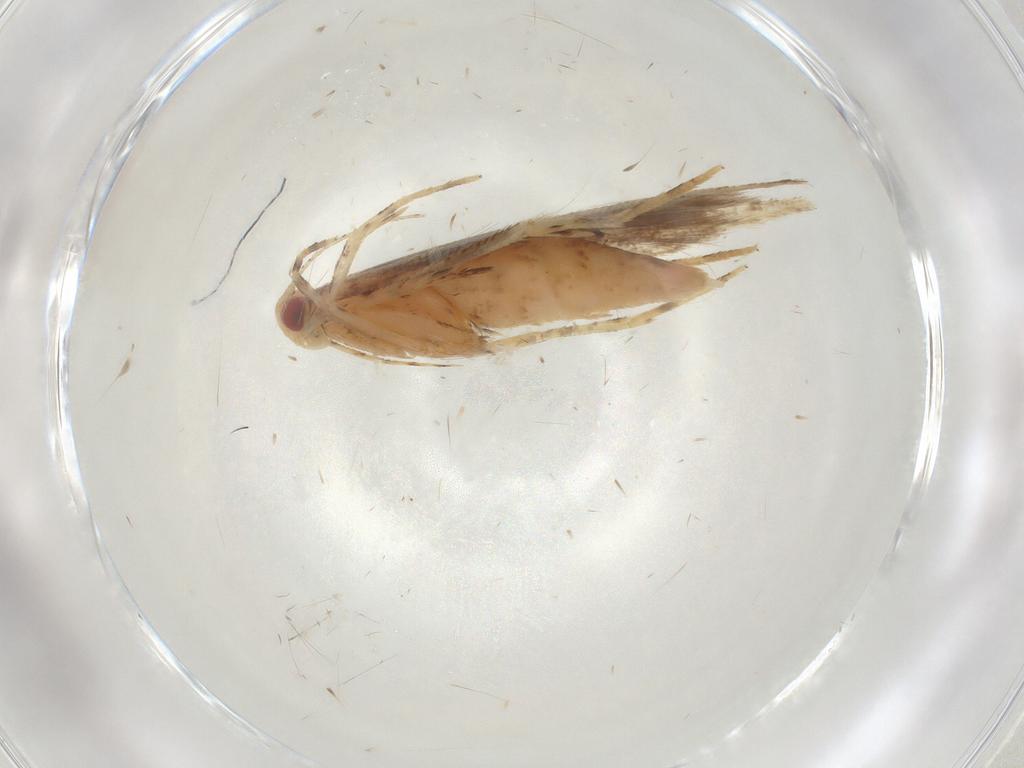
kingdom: Animalia
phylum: Arthropoda
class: Insecta
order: Lepidoptera
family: Cosmopterigidae
